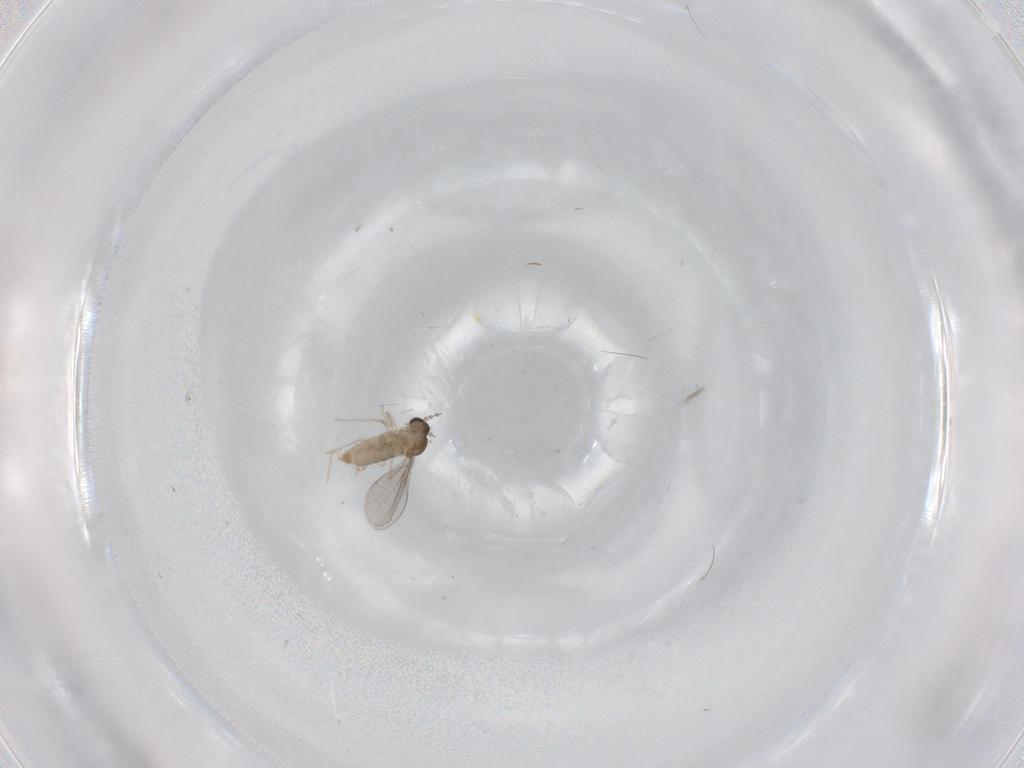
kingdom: Animalia
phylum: Arthropoda
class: Insecta
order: Diptera
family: Cecidomyiidae
